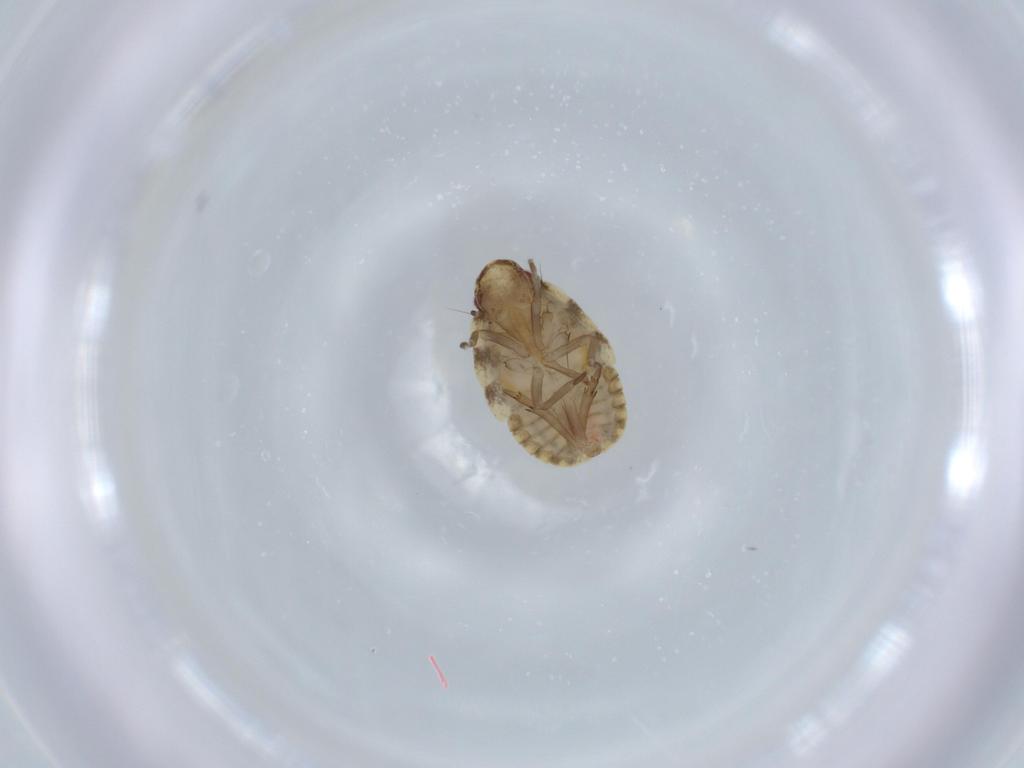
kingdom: Animalia
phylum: Arthropoda
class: Insecta
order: Hemiptera
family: Flatidae
